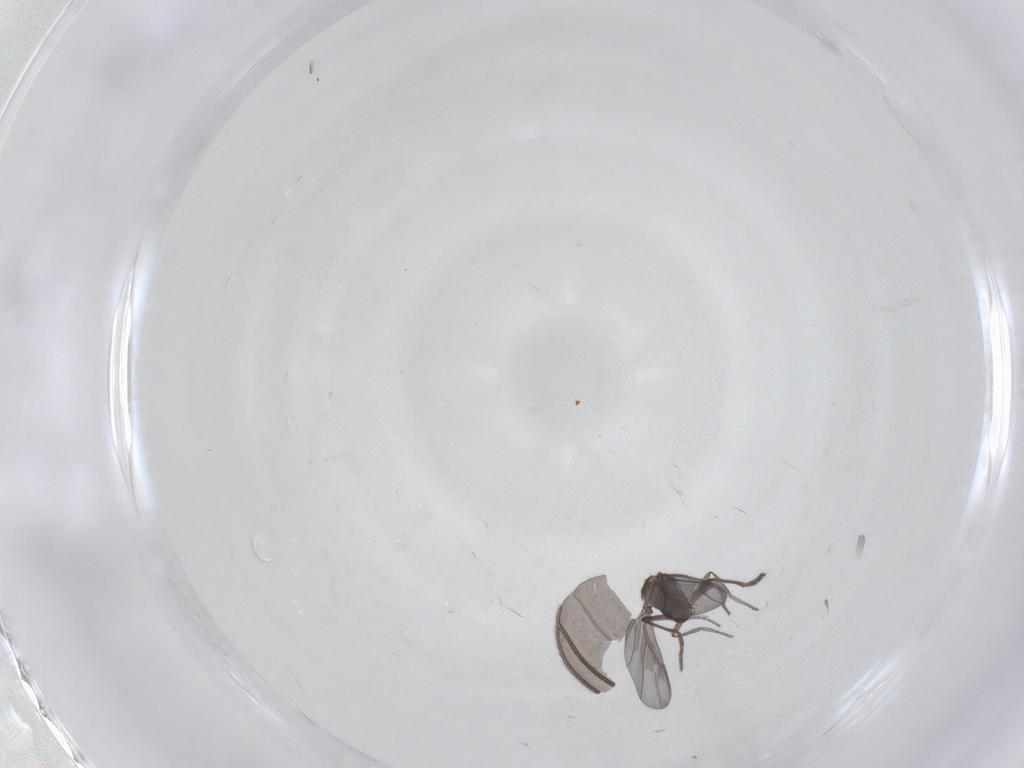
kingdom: Animalia
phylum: Arthropoda
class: Insecta
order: Diptera
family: Phoridae
